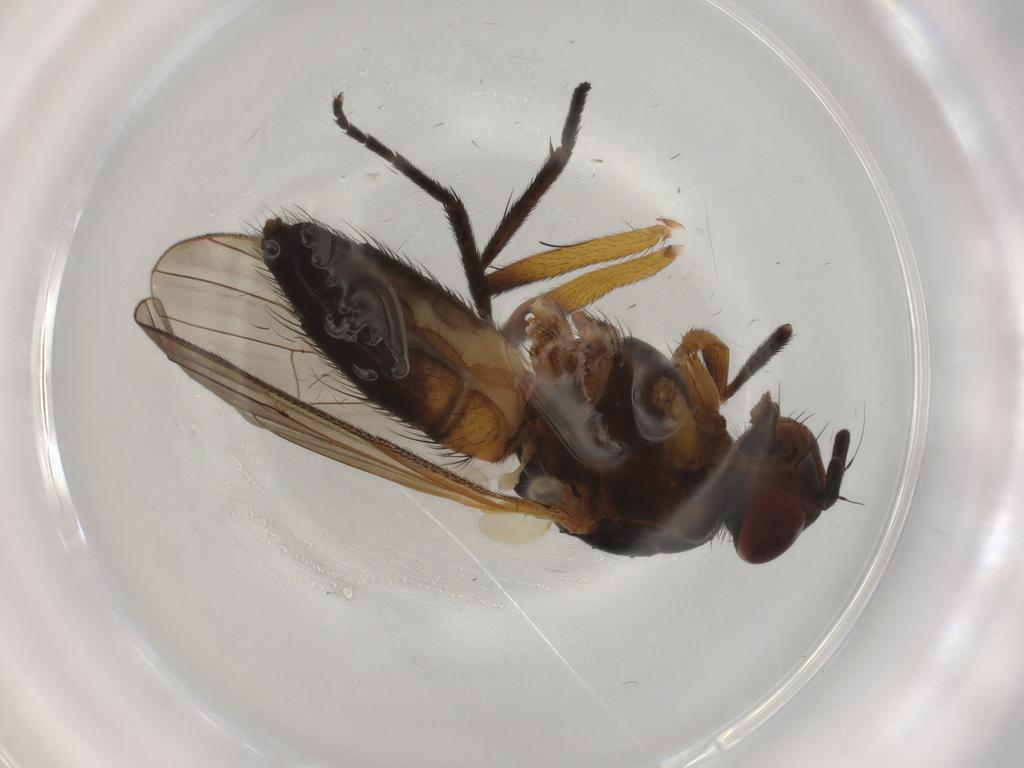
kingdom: Animalia
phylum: Arthropoda
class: Insecta
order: Diptera
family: Anthomyiidae
